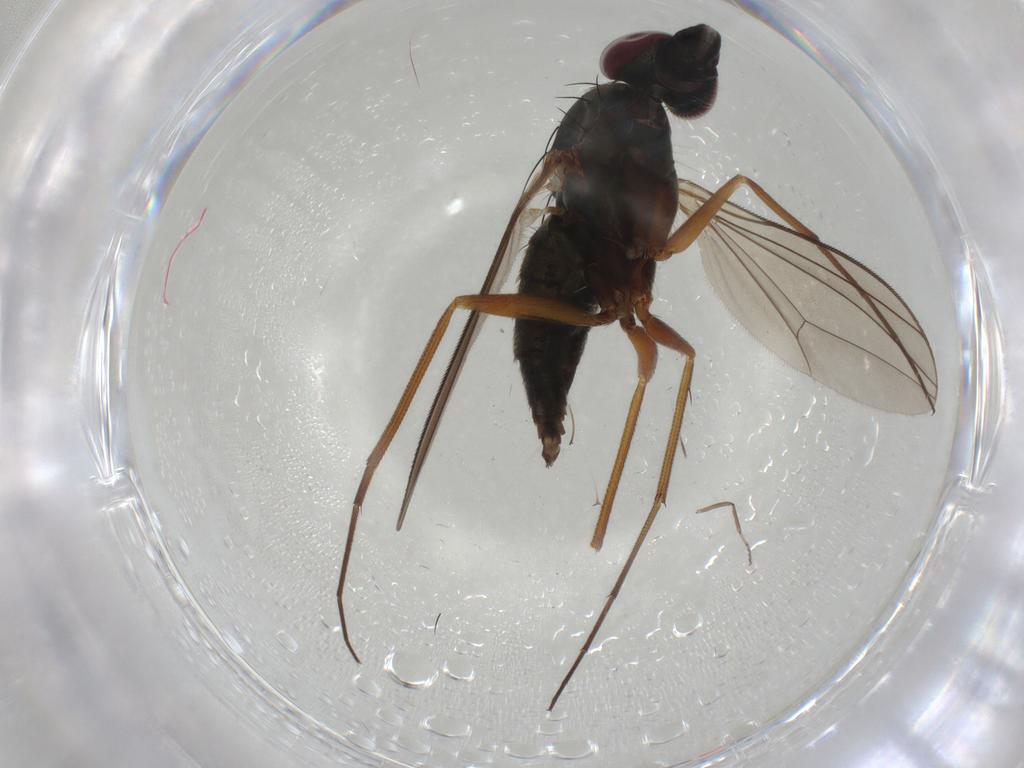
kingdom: Animalia
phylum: Arthropoda
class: Insecta
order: Diptera
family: Dolichopodidae
